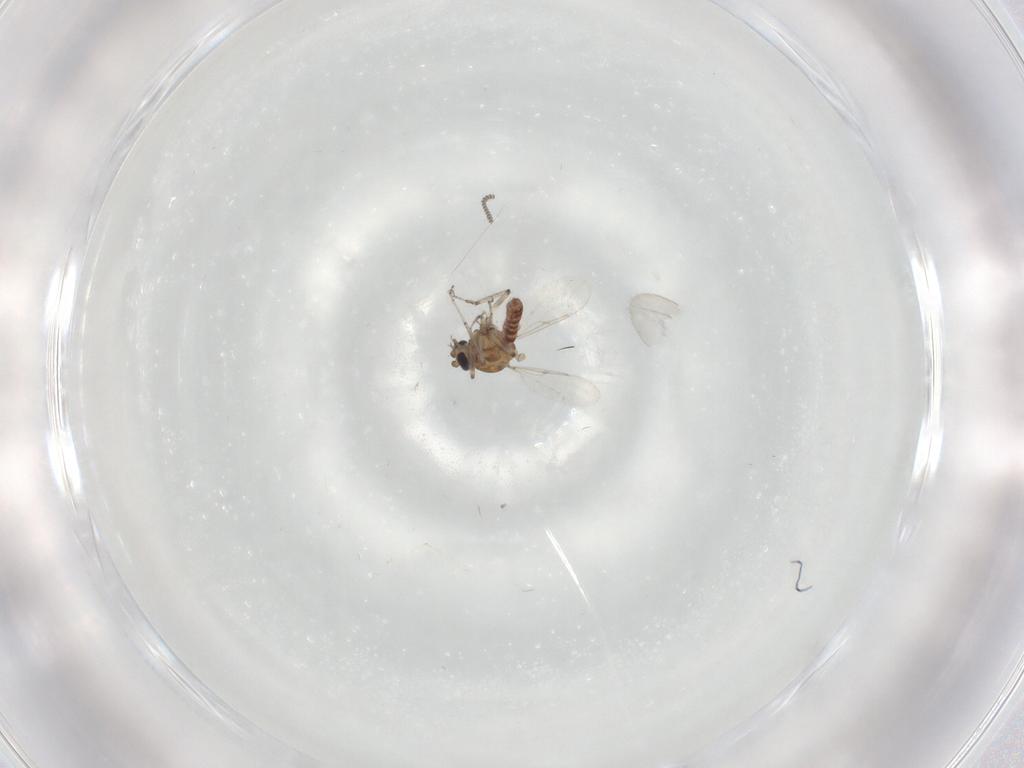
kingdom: Animalia
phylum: Arthropoda
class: Insecta
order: Diptera
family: Ceratopogonidae
